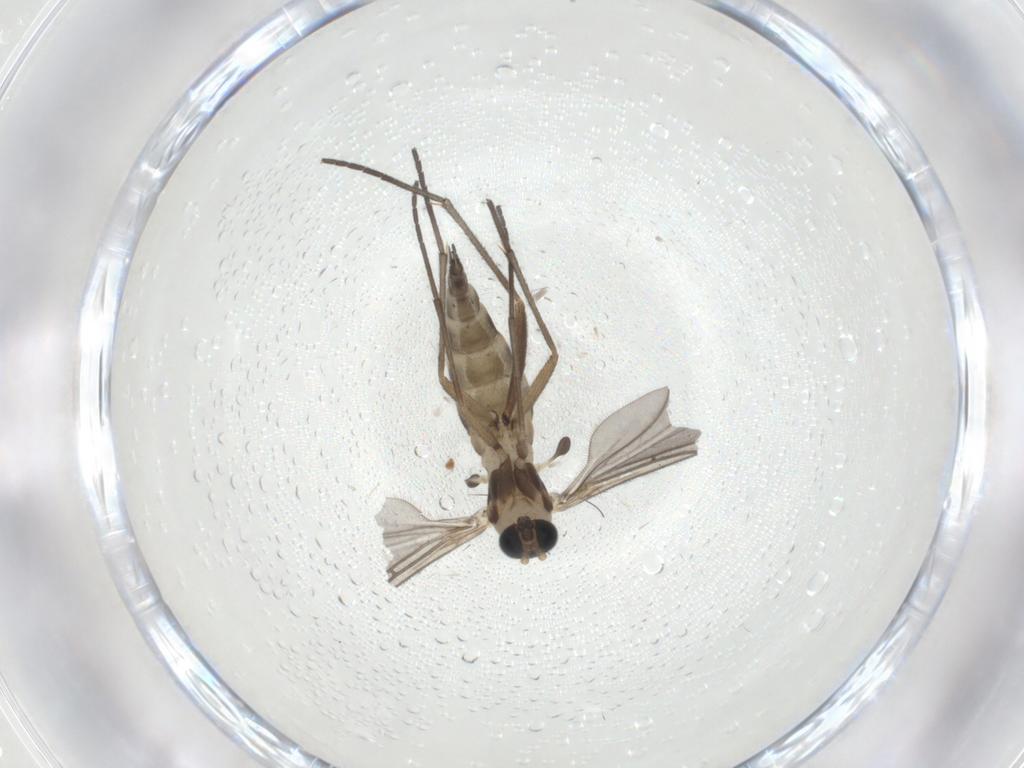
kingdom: Animalia
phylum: Arthropoda
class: Insecta
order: Diptera
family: Sciaridae
